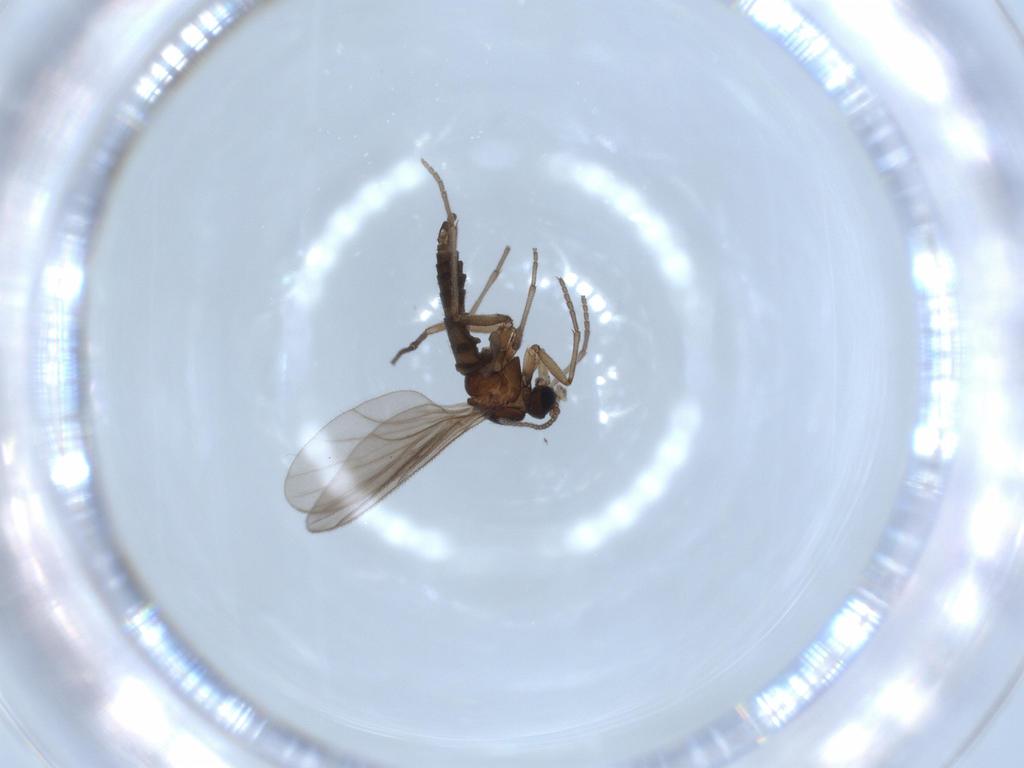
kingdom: Animalia
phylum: Arthropoda
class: Insecta
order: Diptera
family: Sciaridae
